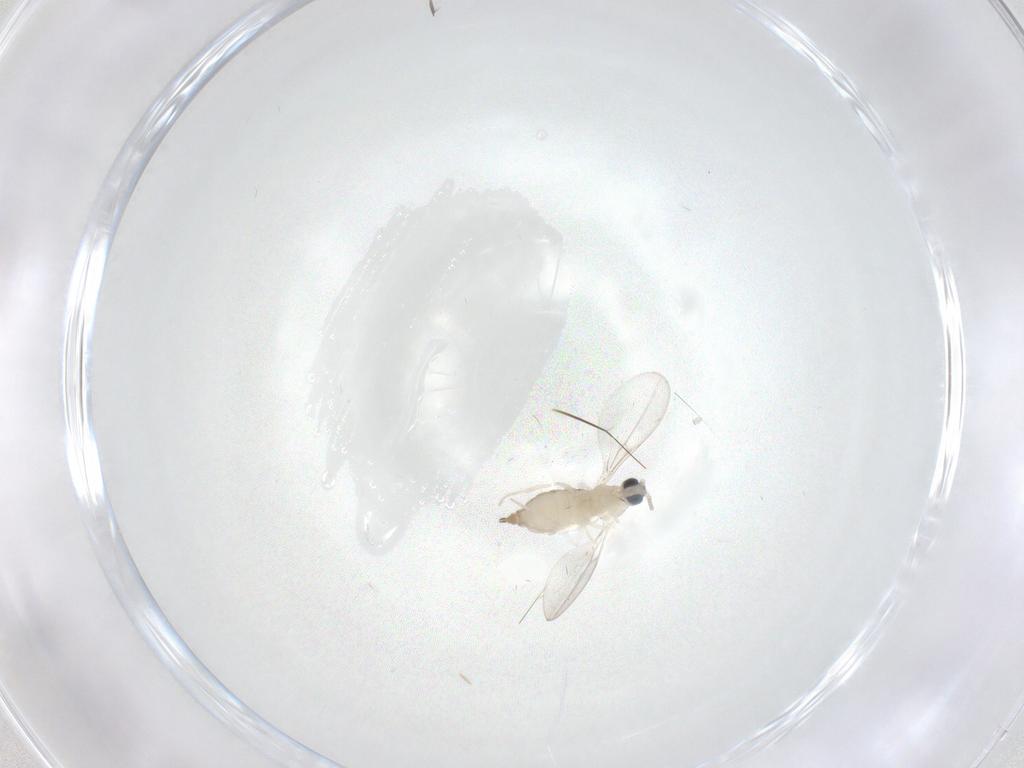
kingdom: Animalia
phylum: Arthropoda
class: Insecta
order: Diptera
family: Cecidomyiidae
